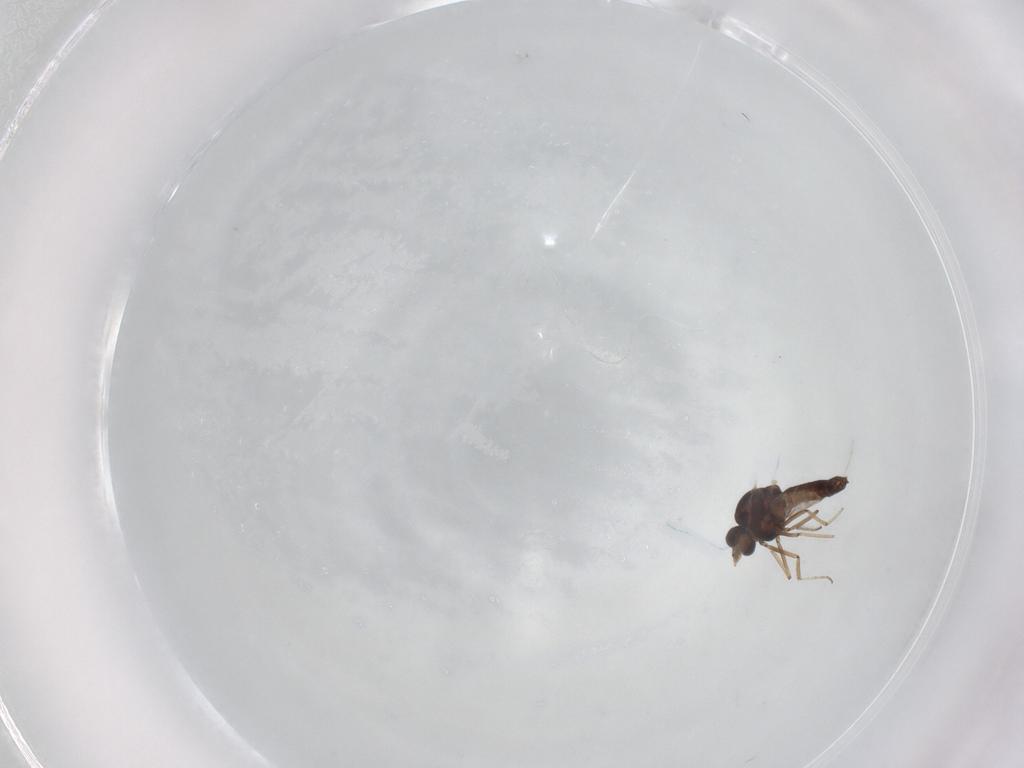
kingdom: Animalia
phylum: Arthropoda
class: Insecta
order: Diptera
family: Ceratopogonidae
